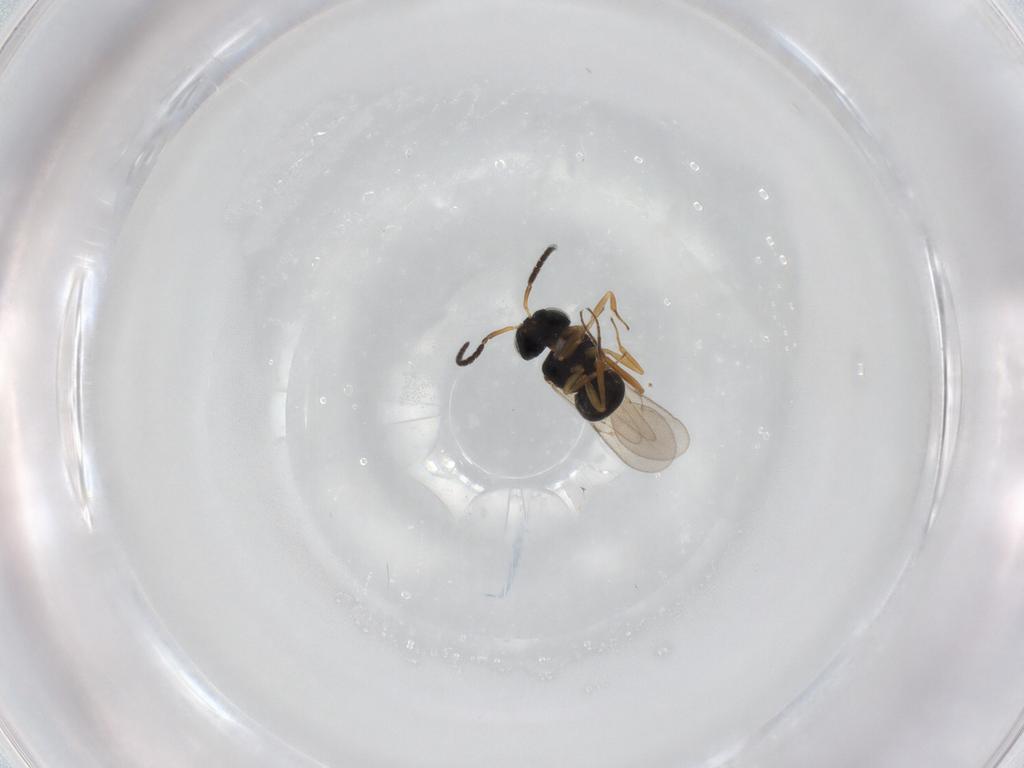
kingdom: Animalia
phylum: Arthropoda
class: Insecta
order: Hymenoptera
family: Scelionidae
